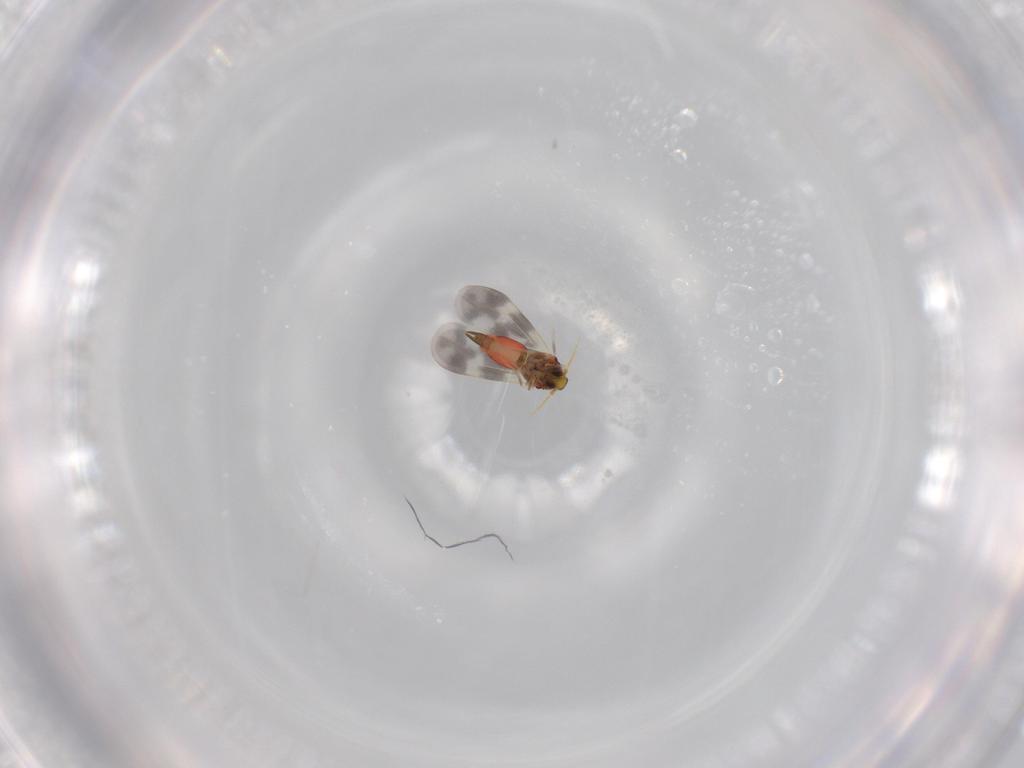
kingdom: Animalia
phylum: Arthropoda
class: Insecta
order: Hemiptera
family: Aleyrodidae
